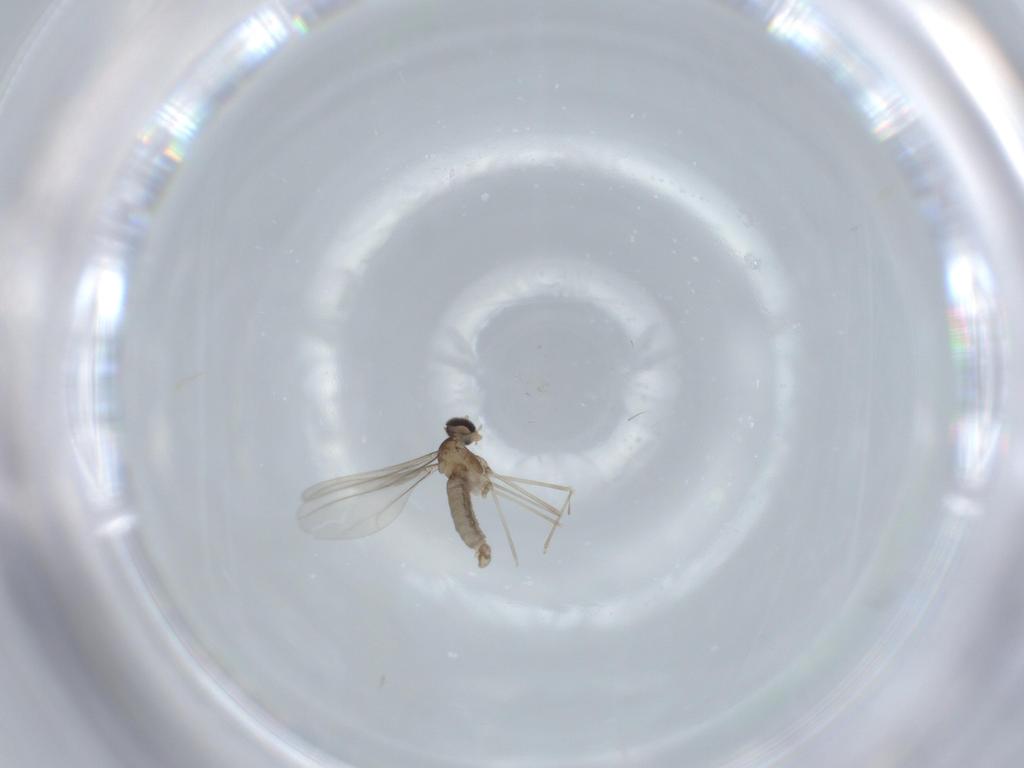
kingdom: Animalia
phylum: Arthropoda
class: Insecta
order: Diptera
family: Cecidomyiidae
